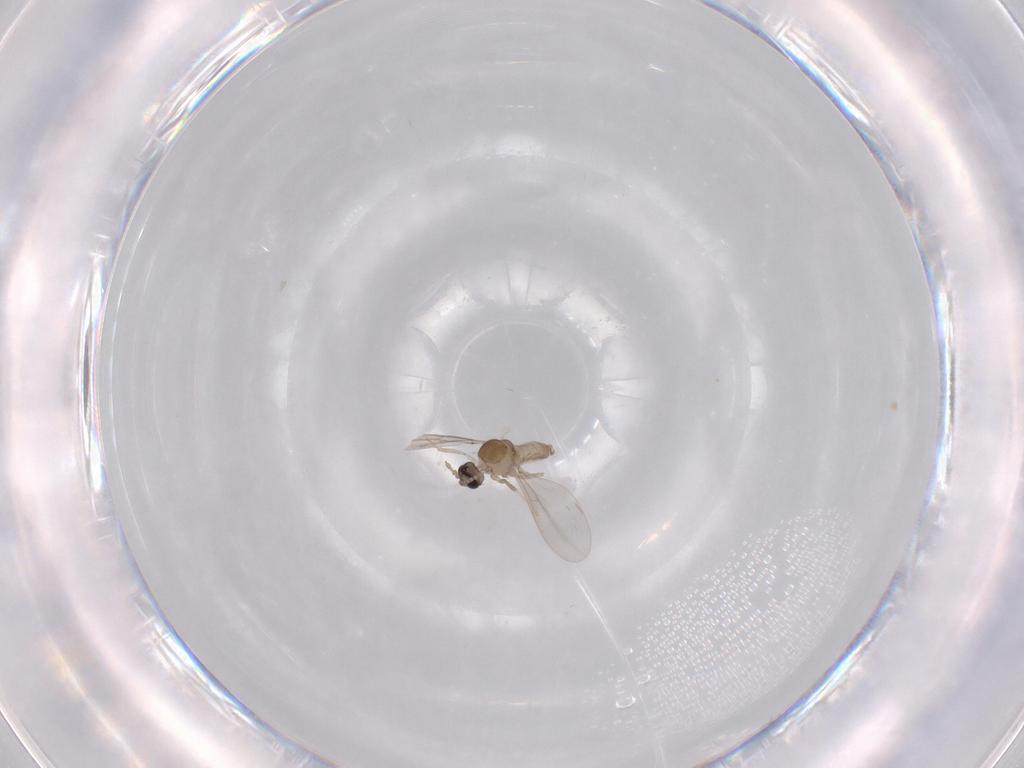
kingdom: Animalia
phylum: Arthropoda
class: Insecta
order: Diptera
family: Cecidomyiidae
